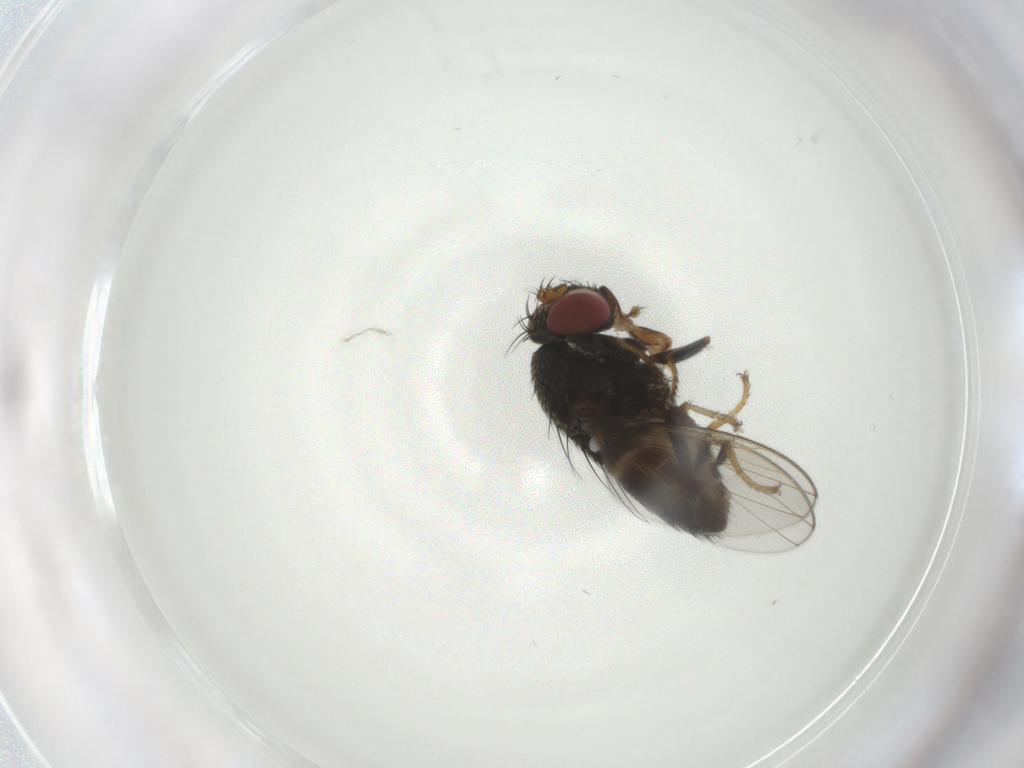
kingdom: Animalia
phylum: Arthropoda
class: Insecta
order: Diptera
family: Ephydridae
